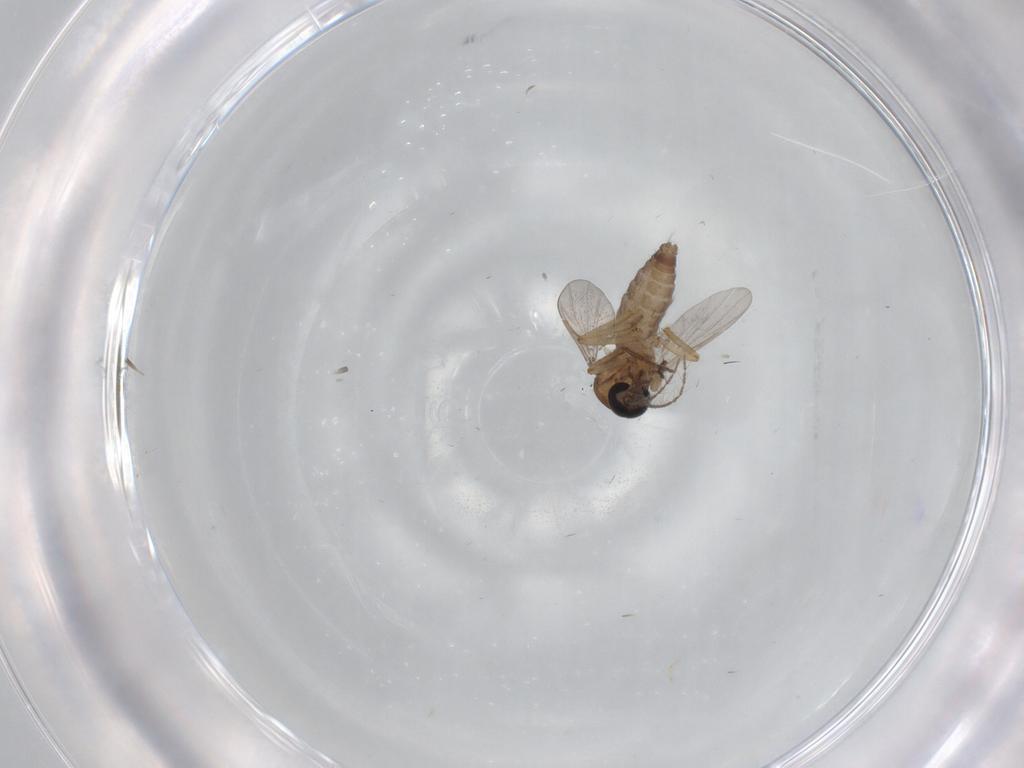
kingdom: Animalia
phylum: Arthropoda
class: Insecta
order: Diptera
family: Ceratopogonidae
